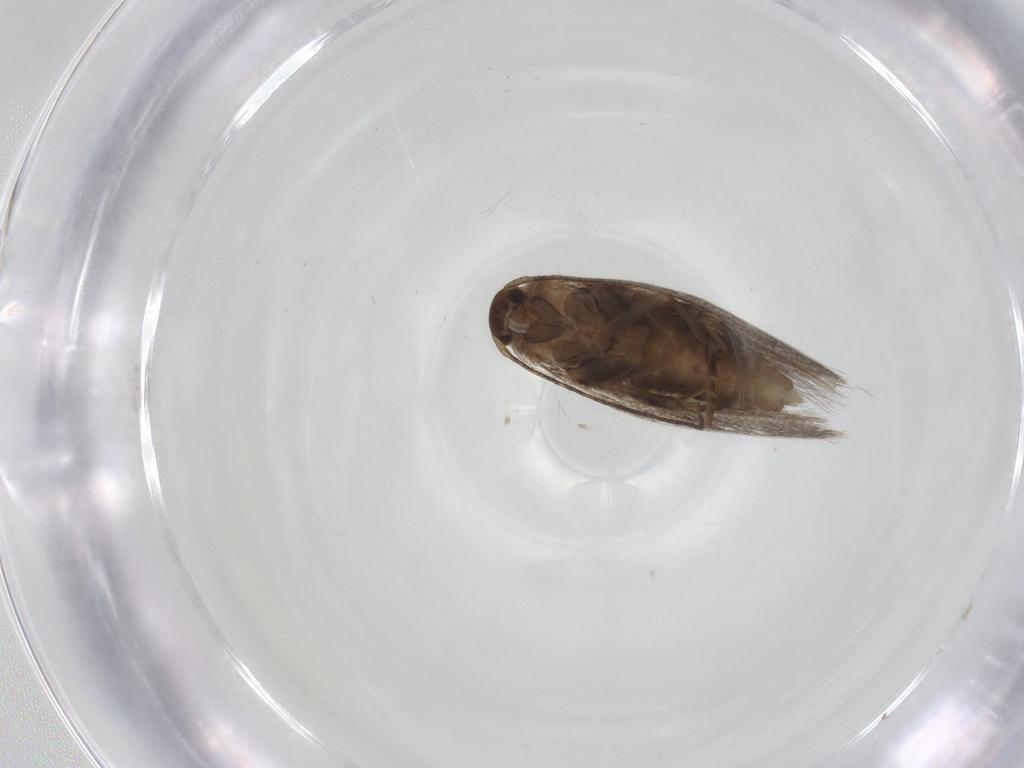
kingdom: Animalia
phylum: Arthropoda
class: Insecta
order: Lepidoptera
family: Elachistidae
